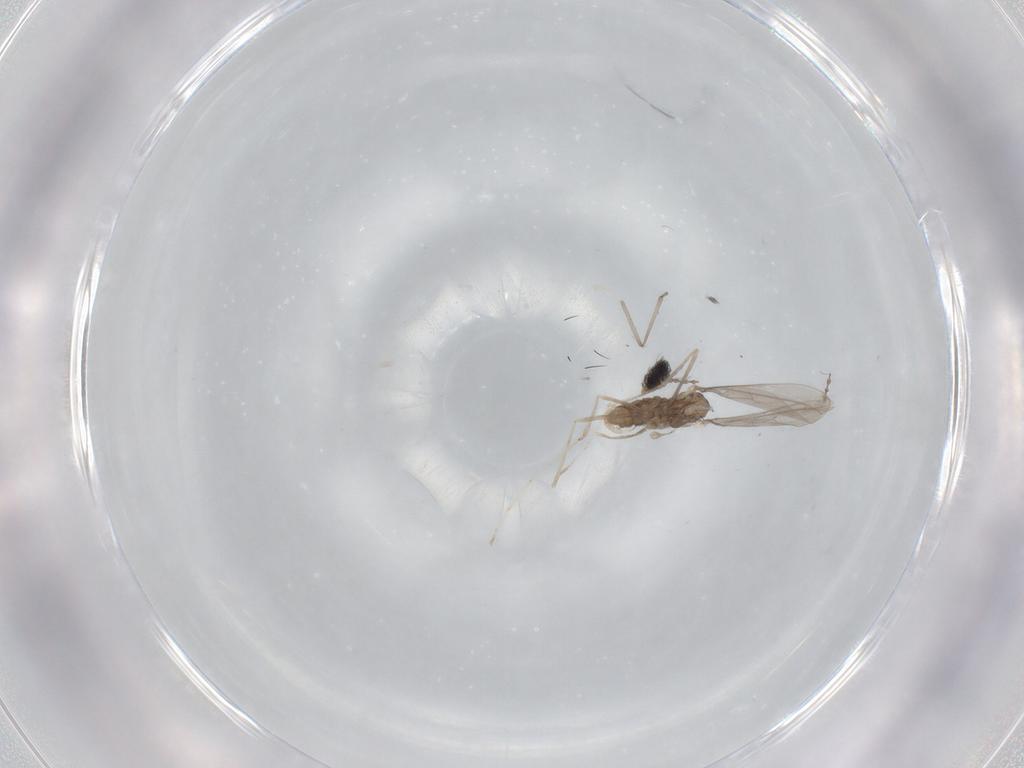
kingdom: Animalia
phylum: Arthropoda
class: Insecta
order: Diptera
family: Cecidomyiidae
